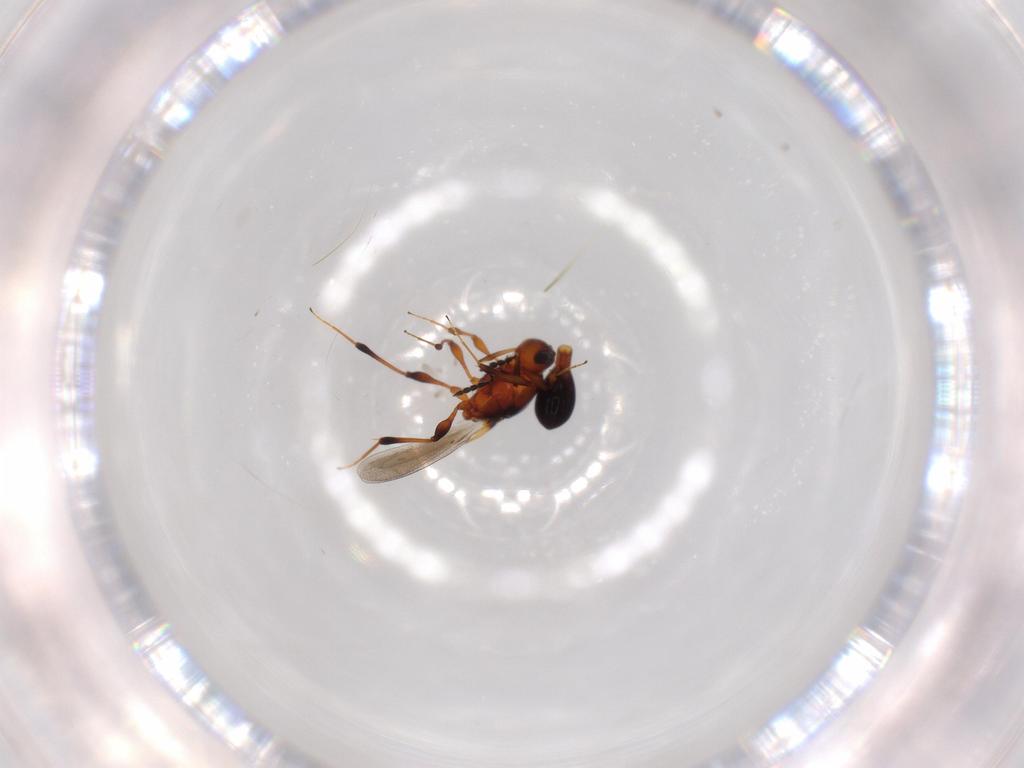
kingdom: Animalia
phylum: Arthropoda
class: Insecta
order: Hymenoptera
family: Platygastridae
